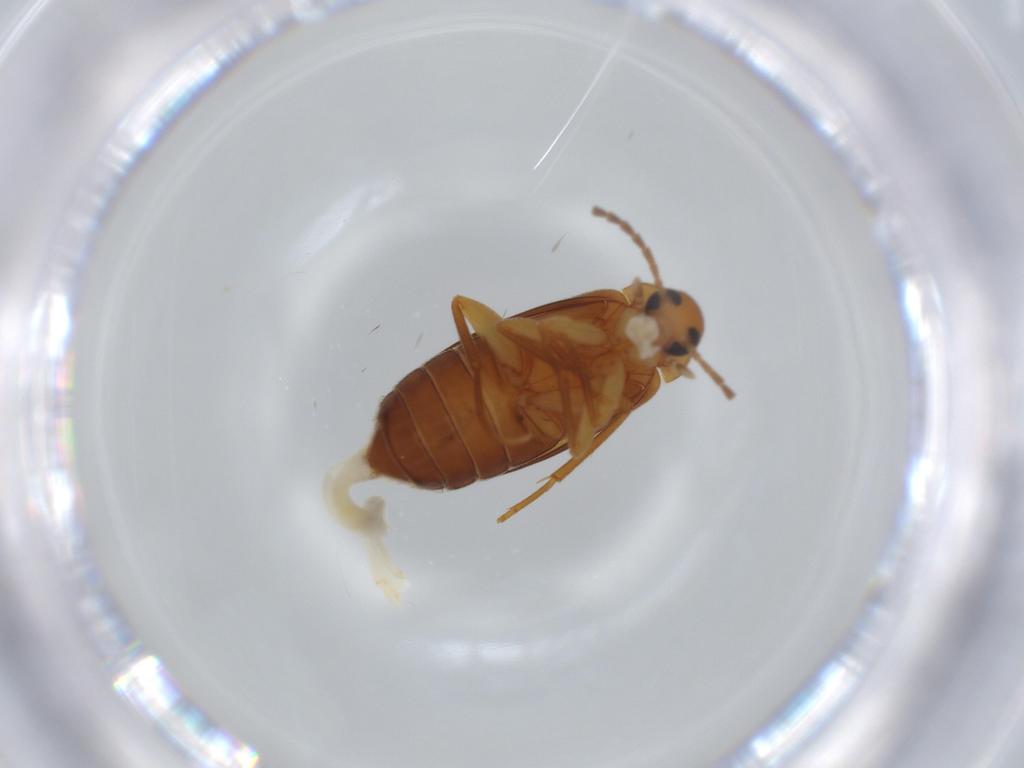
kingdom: Animalia
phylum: Arthropoda
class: Insecta
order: Coleoptera
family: Scraptiidae
